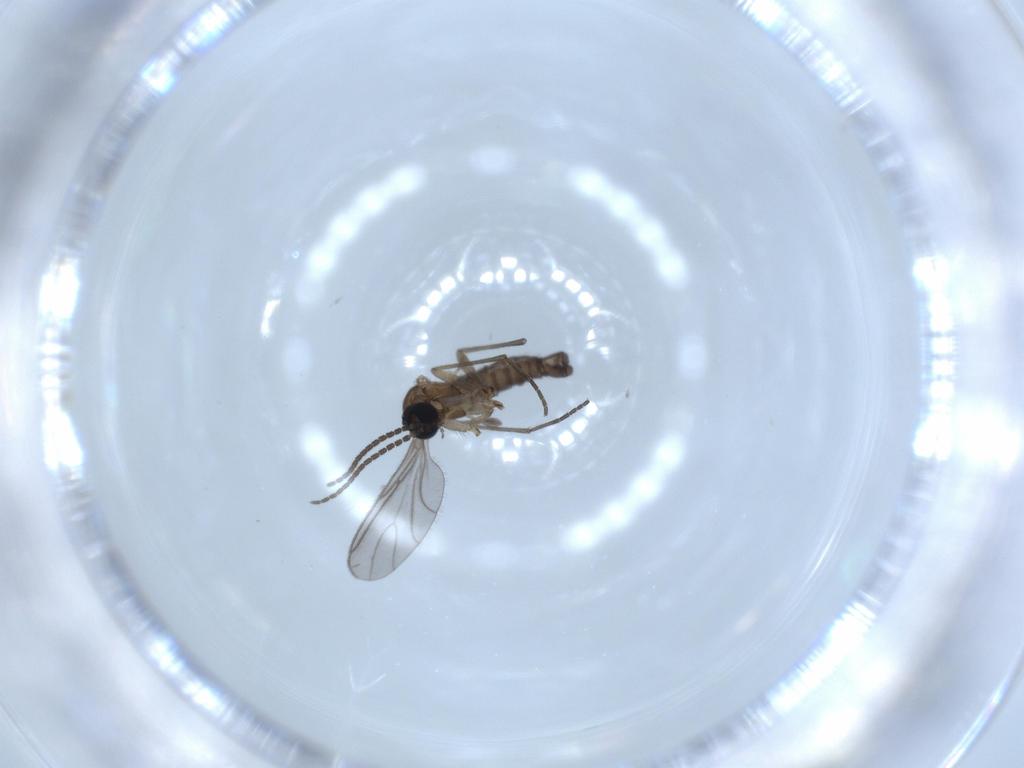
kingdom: Animalia
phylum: Arthropoda
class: Insecta
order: Diptera
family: Sciaridae
